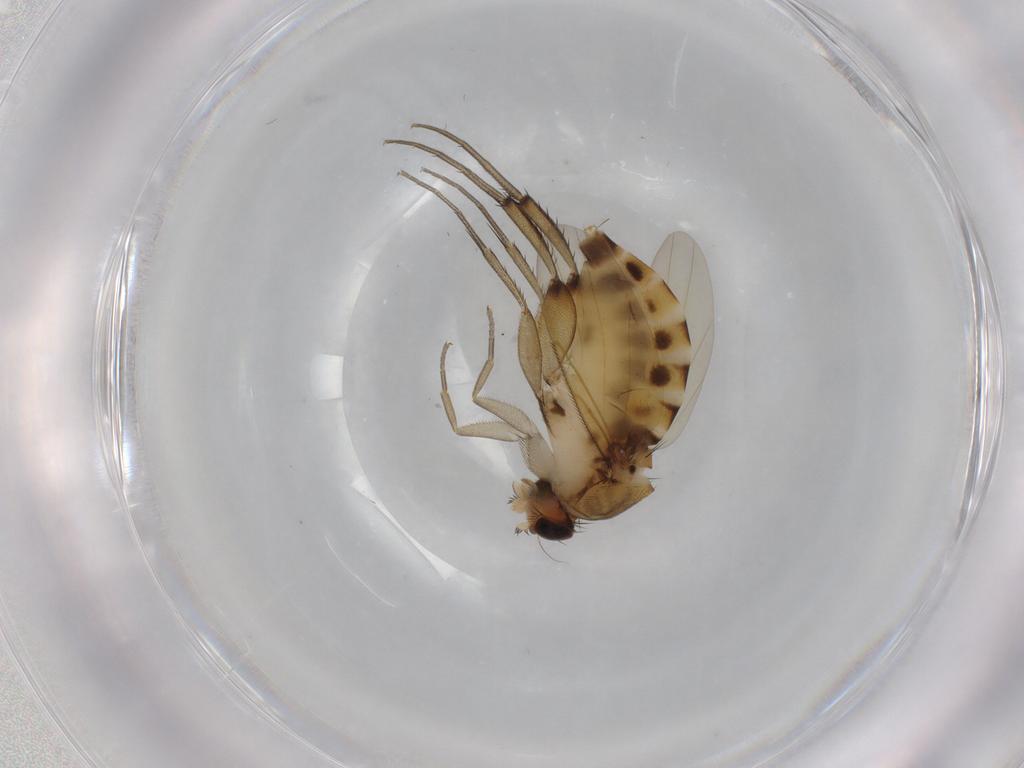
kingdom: Animalia
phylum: Arthropoda
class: Insecta
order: Diptera
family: Phoridae
